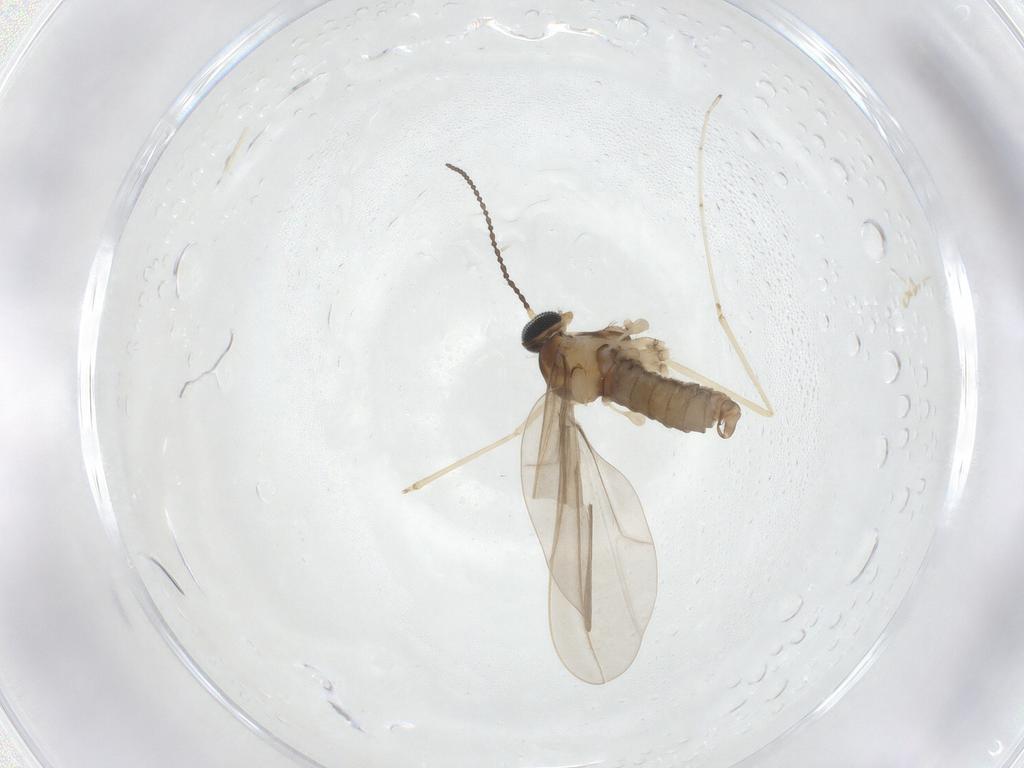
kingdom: Animalia
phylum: Arthropoda
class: Insecta
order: Diptera
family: Cecidomyiidae
